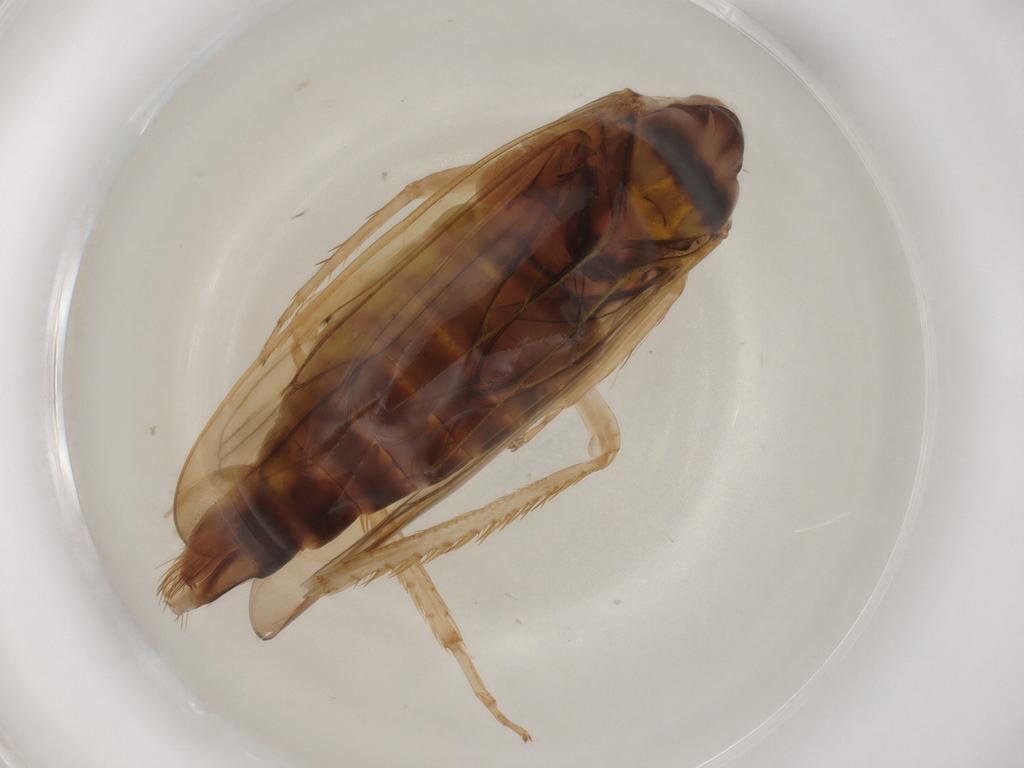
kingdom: Animalia
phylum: Arthropoda
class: Insecta
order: Hemiptera
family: Cicadellidae
